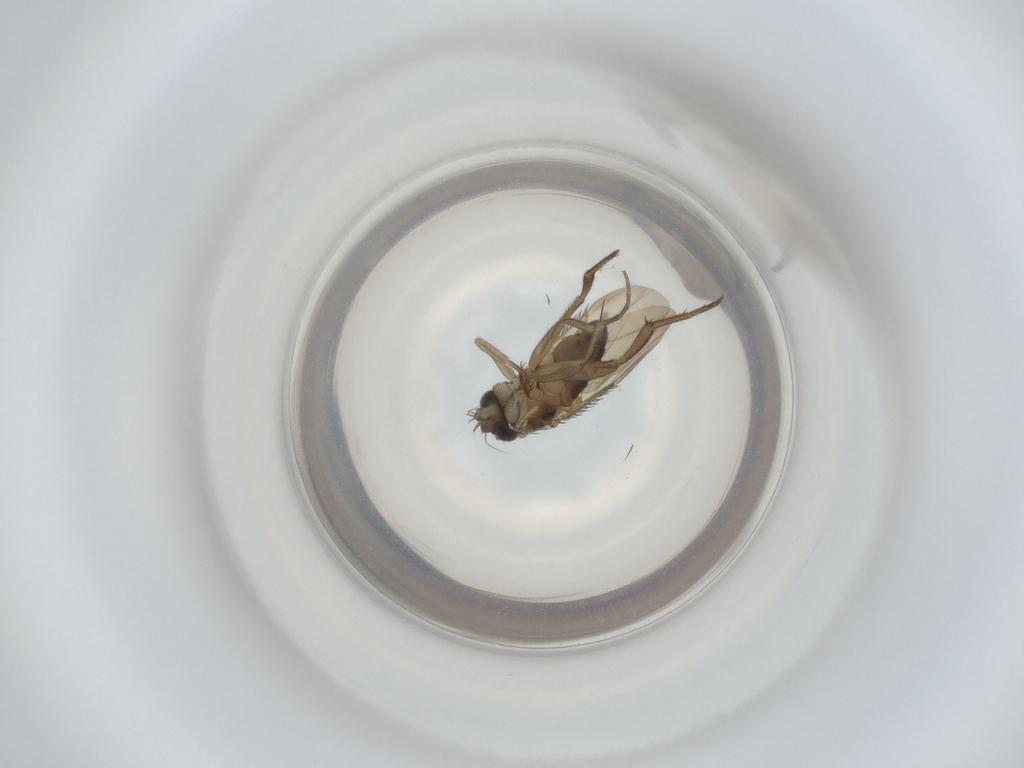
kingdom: Animalia
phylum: Arthropoda
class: Insecta
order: Diptera
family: Phoridae
